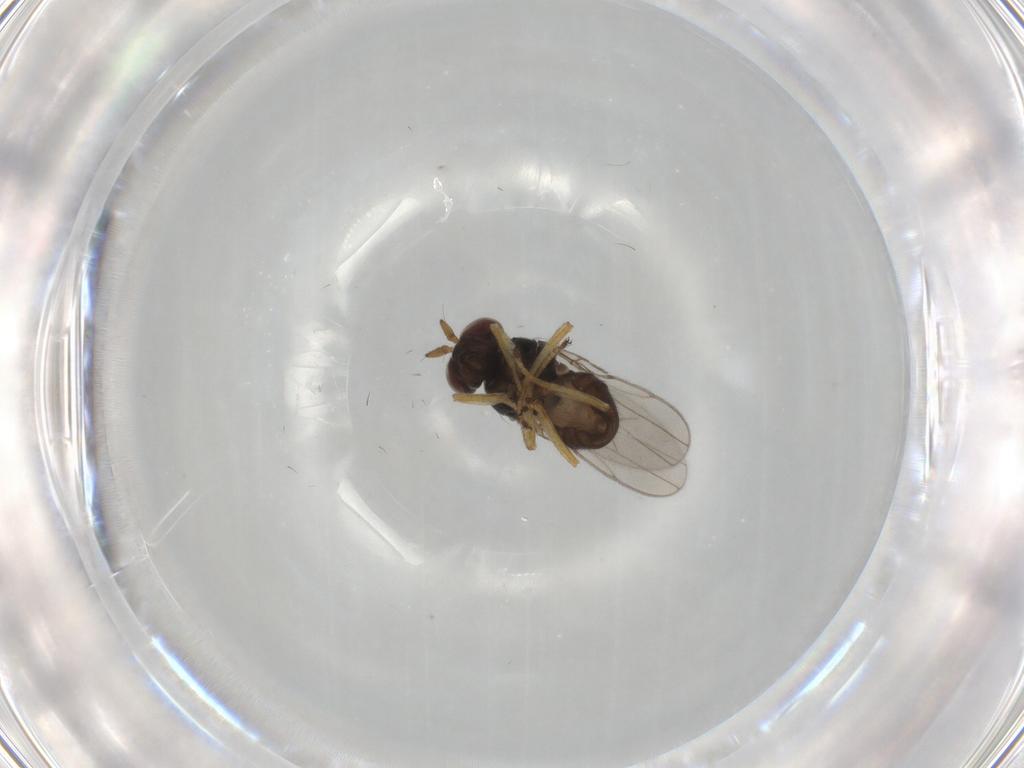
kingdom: Animalia
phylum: Arthropoda
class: Insecta
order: Diptera
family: Ephydridae
